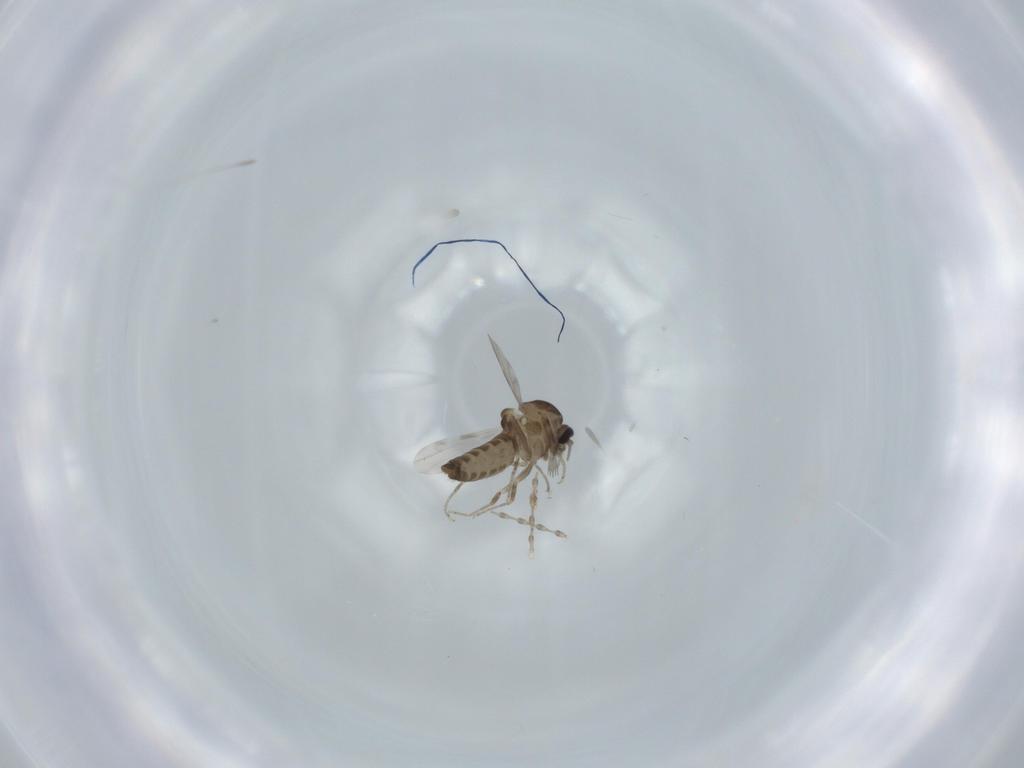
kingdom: Animalia
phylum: Arthropoda
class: Insecta
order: Diptera
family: Ceratopogonidae
